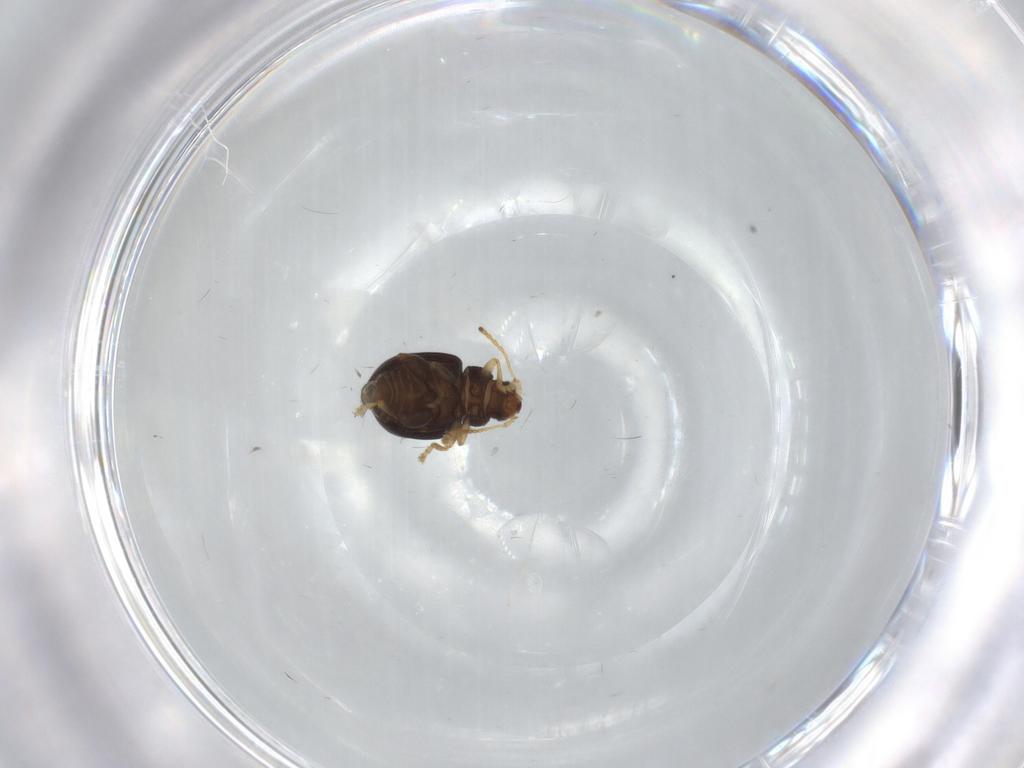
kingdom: Animalia
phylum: Arthropoda
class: Insecta
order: Coleoptera
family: Chrysomelidae
